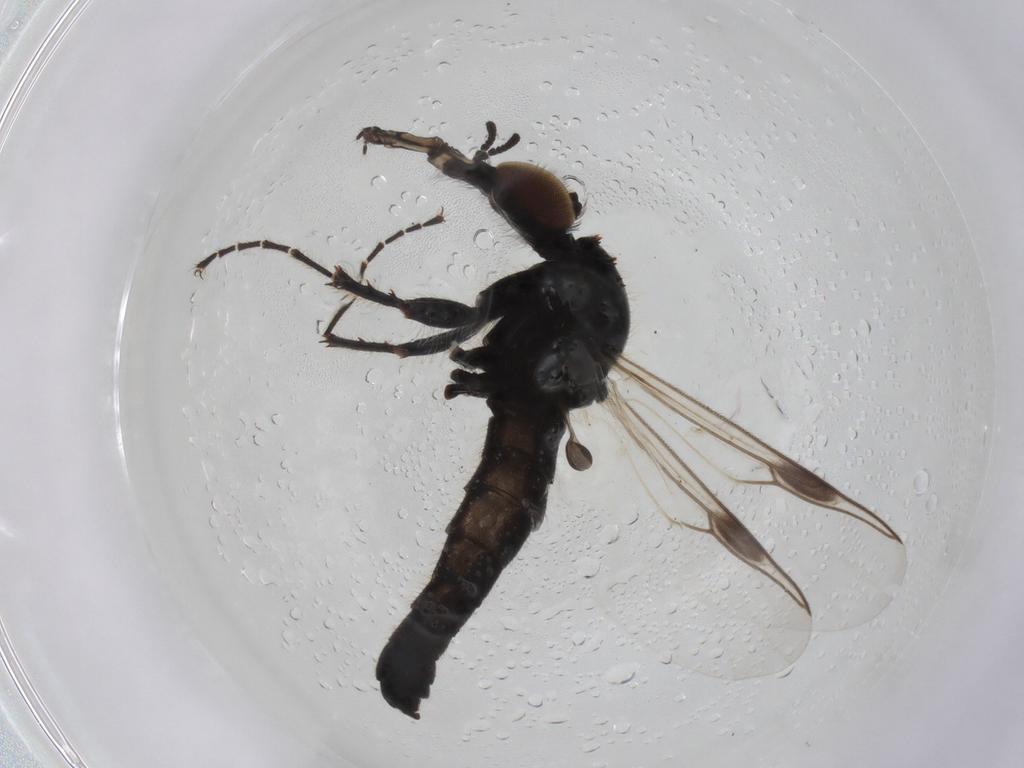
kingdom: Animalia
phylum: Arthropoda
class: Insecta
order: Diptera
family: Bibionidae
